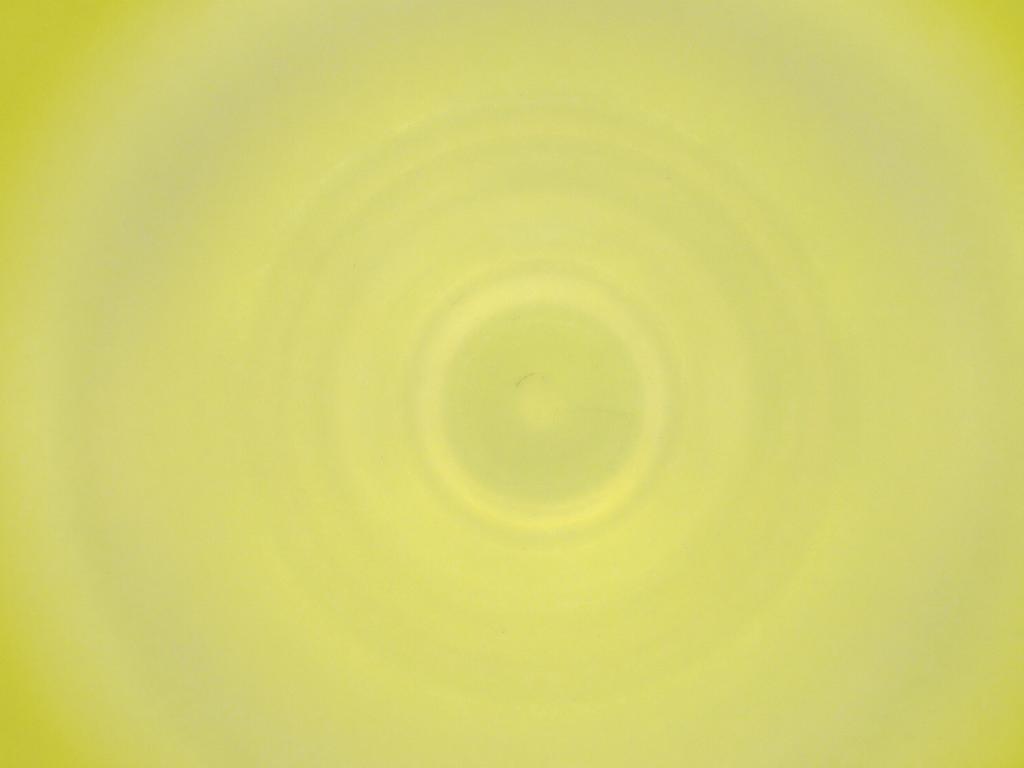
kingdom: Animalia
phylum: Arthropoda
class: Insecta
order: Diptera
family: Cecidomyiidae
